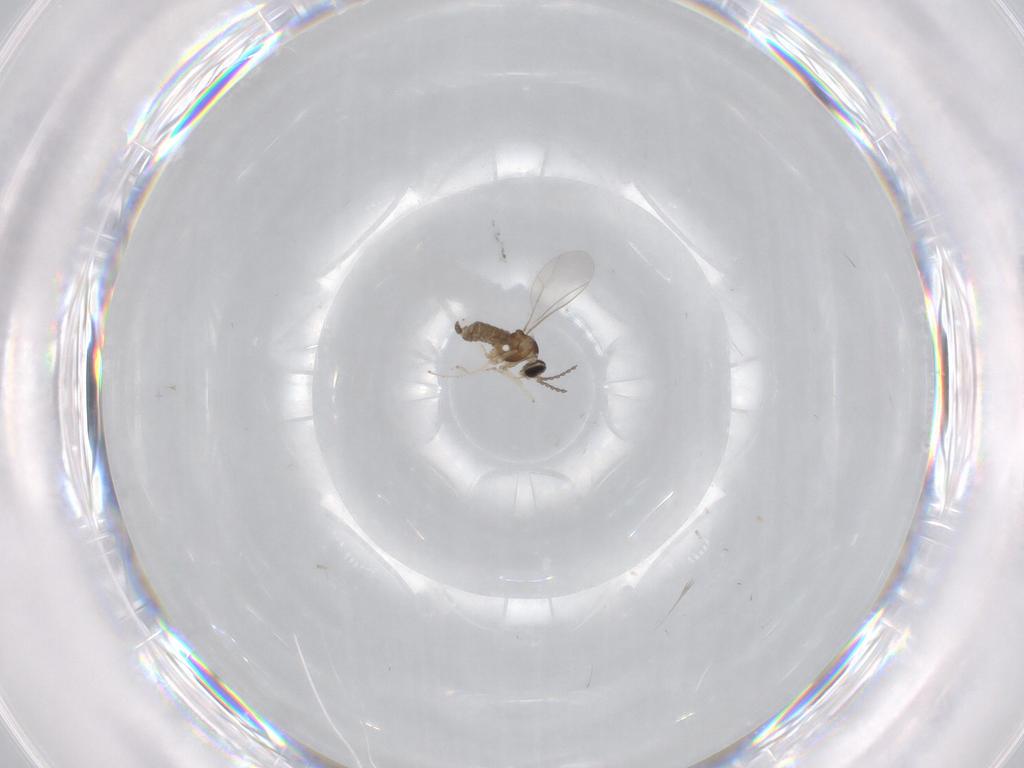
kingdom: Animalia
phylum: Arthropoda
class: Insecta
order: Diptera
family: Cecidomyiidae
